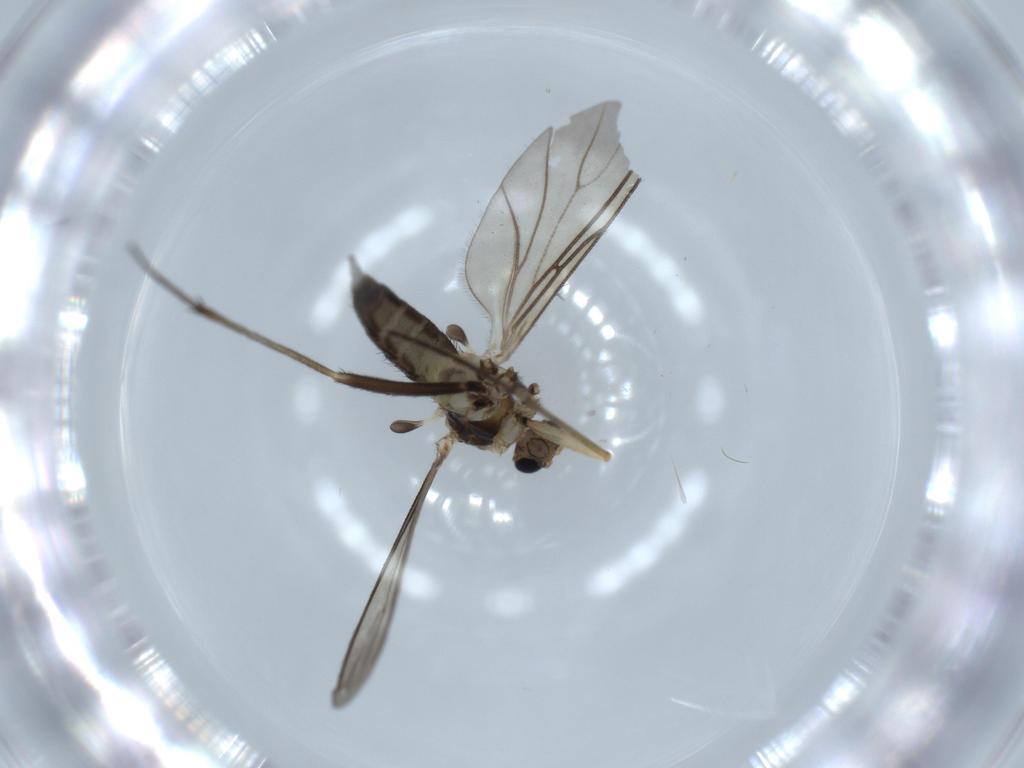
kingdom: Animalia
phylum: Arthropoda
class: Insecta
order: Diptera
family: Sciaridae
